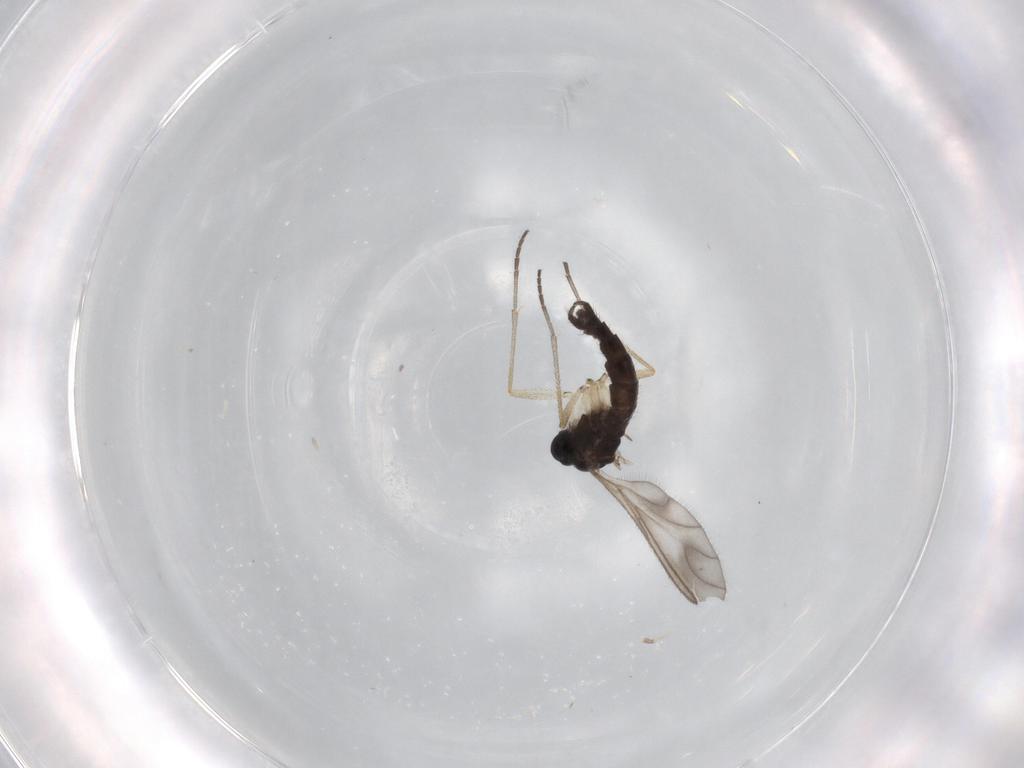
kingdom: Animalia
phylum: Arthropoda
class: Insecta
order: Diptera
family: Sciaridae
